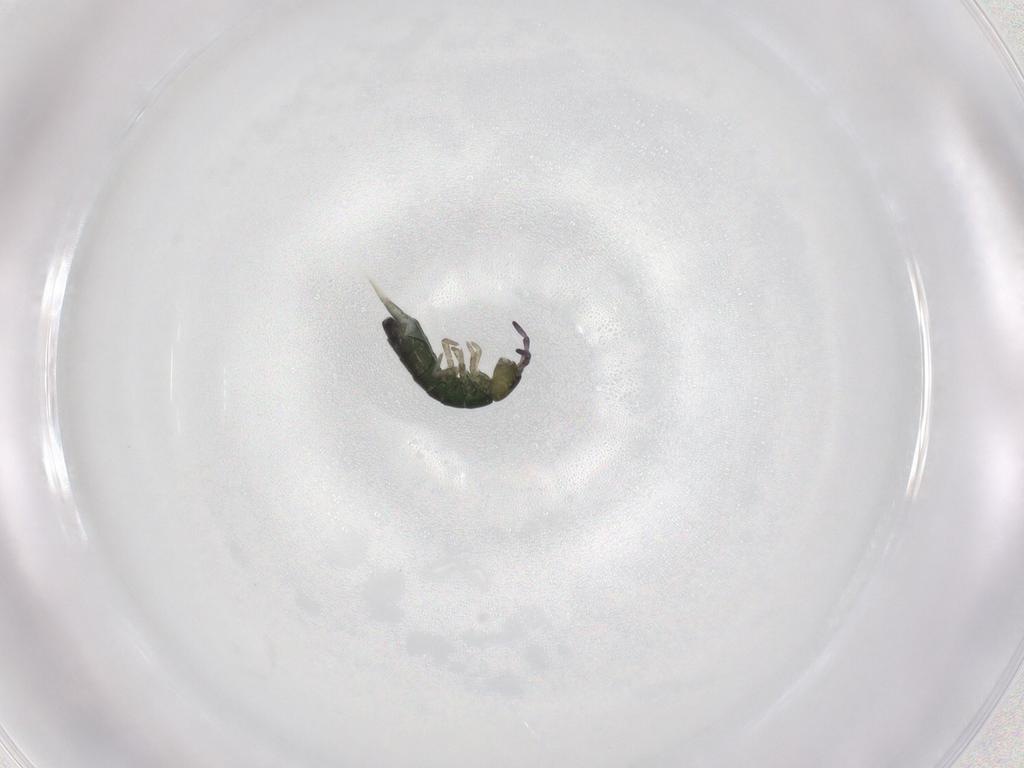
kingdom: Animalia
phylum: Arthropoda
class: Collembola
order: Entomobryomorpha
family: Isotomidae
